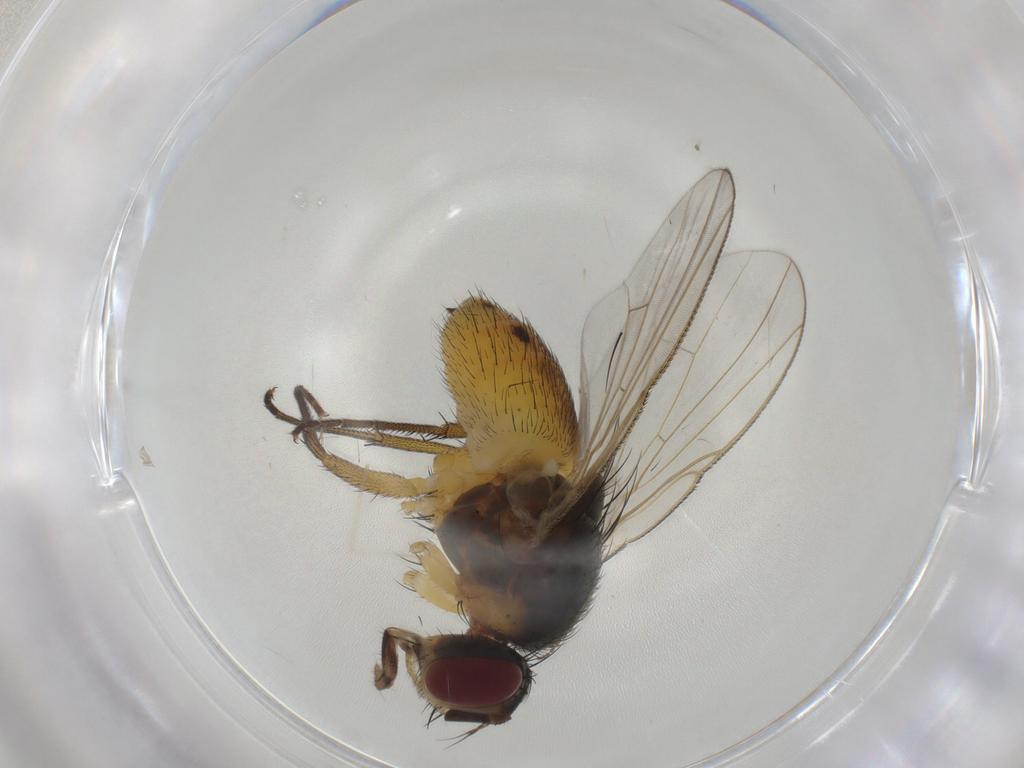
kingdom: Animalia
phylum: Arthropoda
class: Insecta
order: Diptera
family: Muscidae
